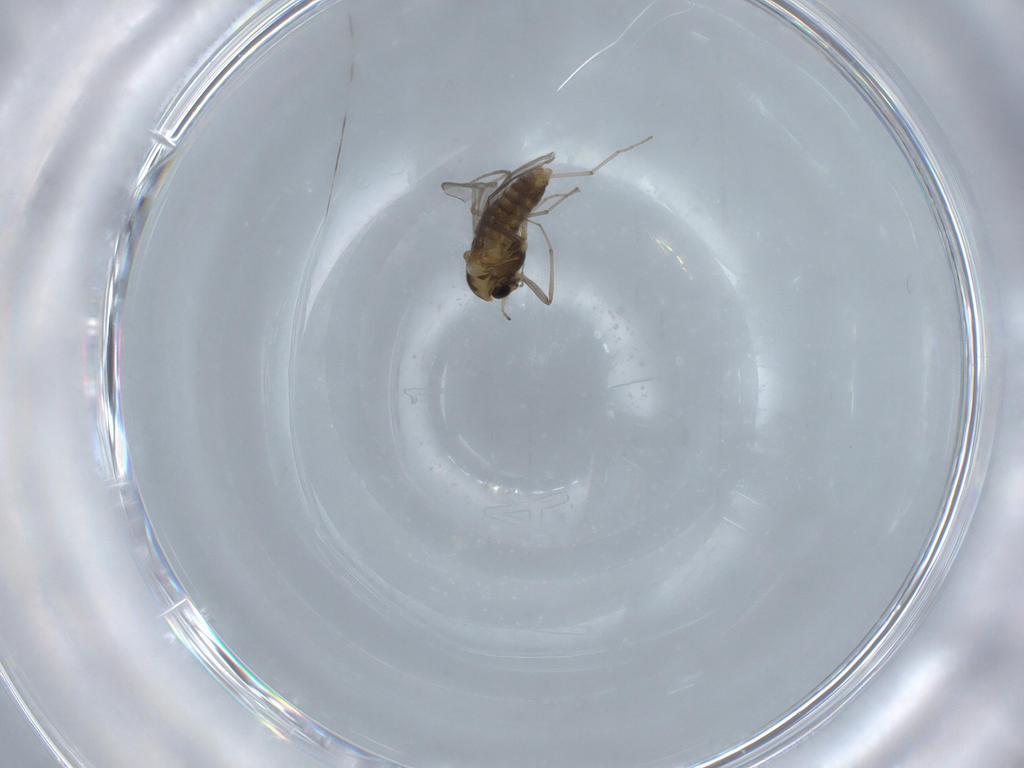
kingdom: Animalia
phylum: Arthropoda
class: Insecta
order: Diptera
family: Chironomidae
